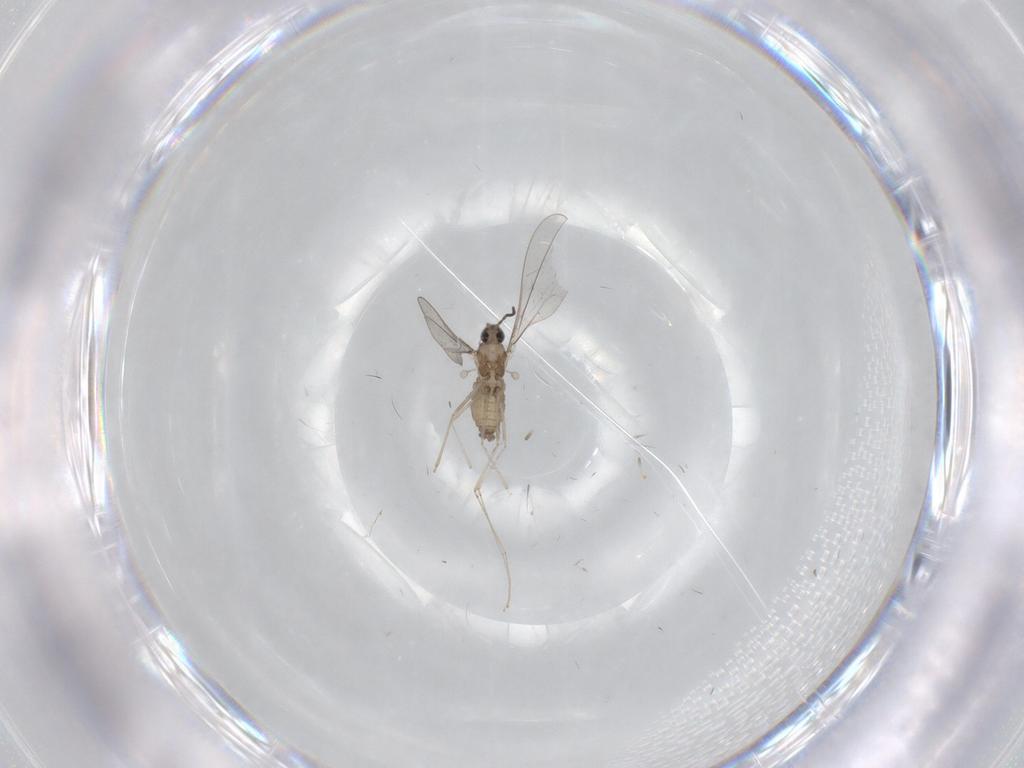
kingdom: Animalia
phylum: Arthropoda
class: Insecta
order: Diptera
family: Cecidomyiidae
